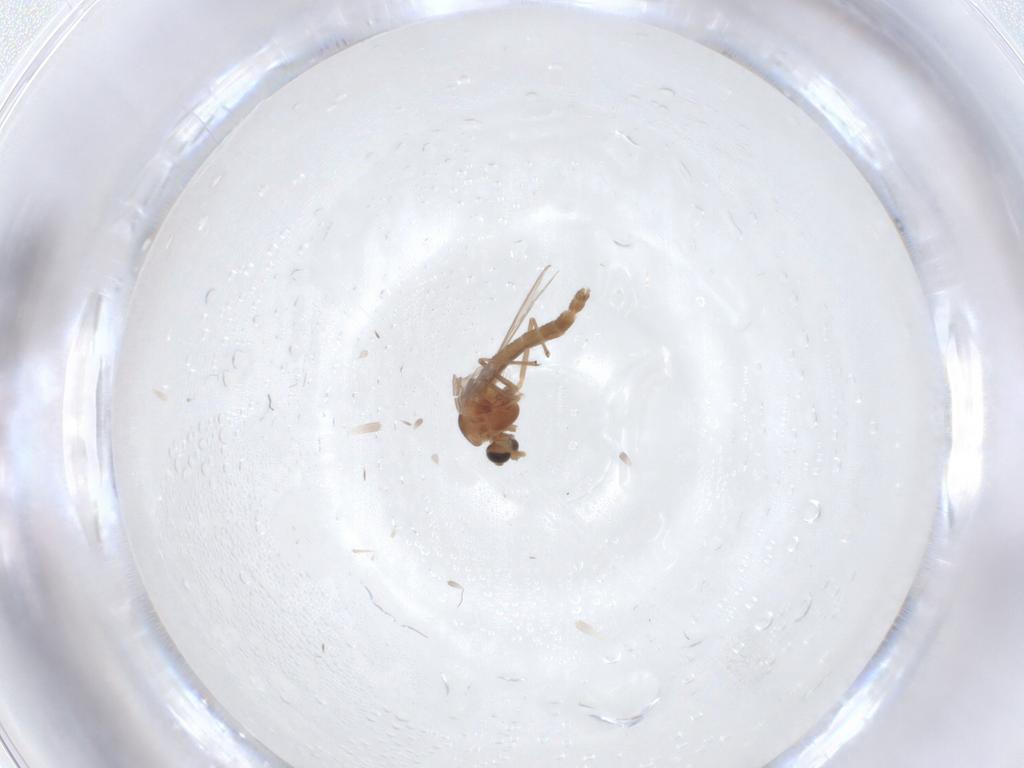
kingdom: Animalia
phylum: Arthropoda
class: Insecta
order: Diptera
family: Chironomidae
